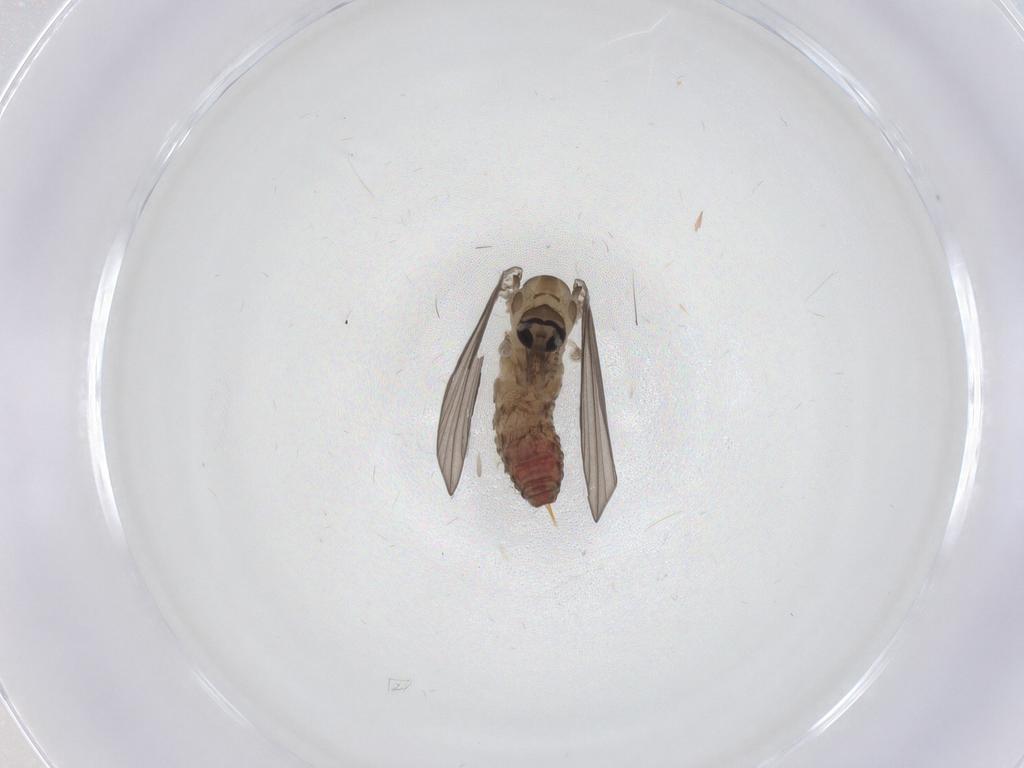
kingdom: Animalia
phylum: Arthropoda
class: Insecta
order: Diptera
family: Psychodidae
